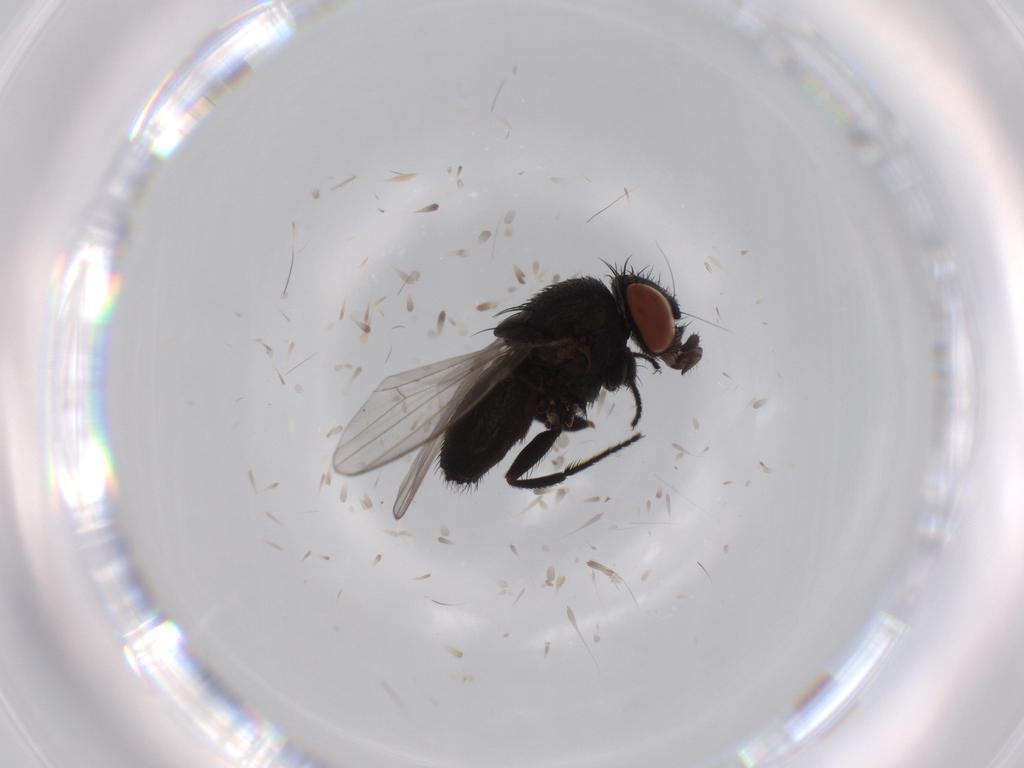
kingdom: Animalia
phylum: Arthropoda
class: Insecta
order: Diptera
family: Milichiidae
